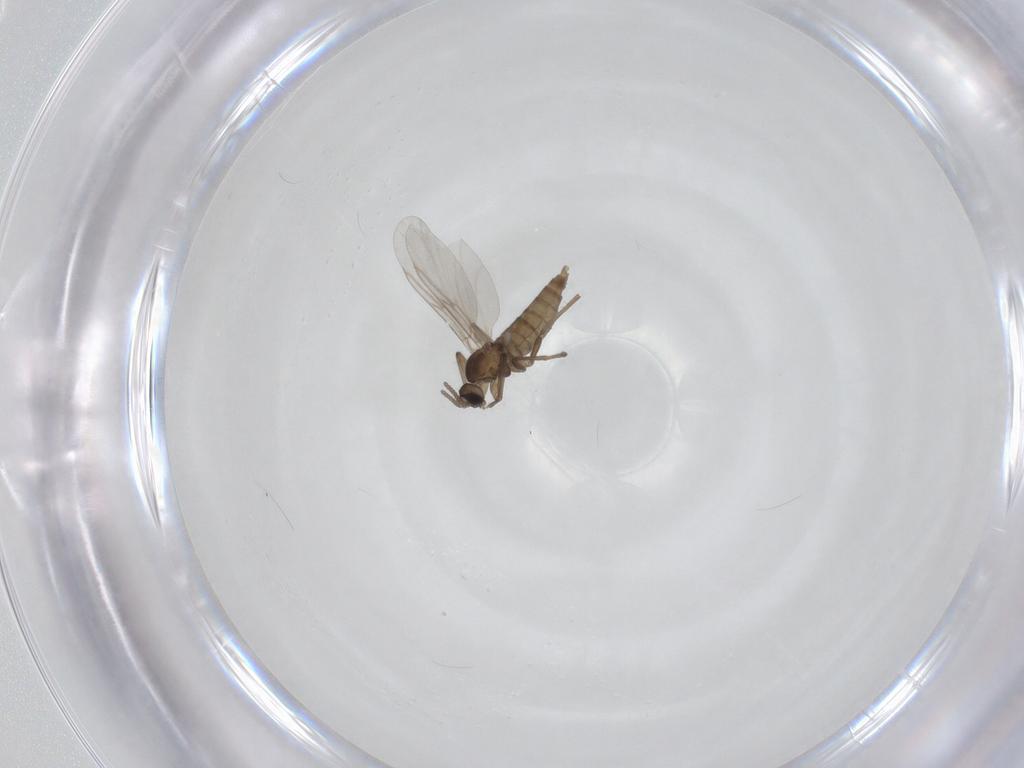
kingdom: Animalia
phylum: Arthropoda
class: Insecta
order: Diptera
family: Cecidomyiidae
